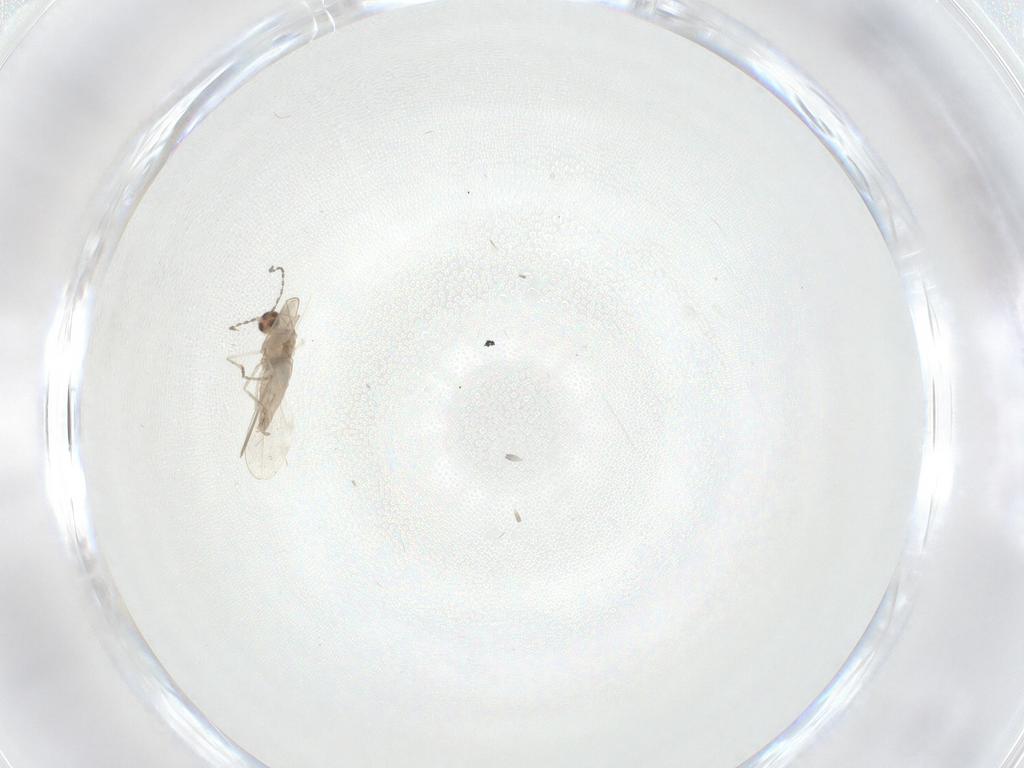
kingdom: Animalia
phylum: Arthropoda
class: Insecta
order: Diptera
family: Cecidomyiidae
